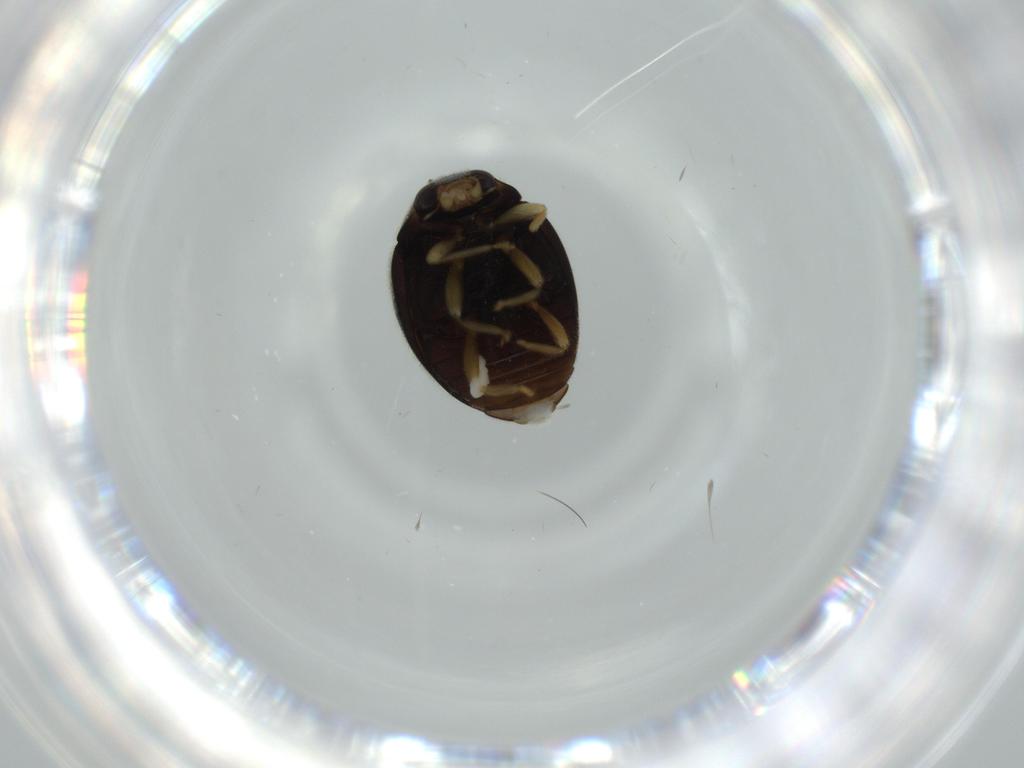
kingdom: Animalia
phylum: Arthropoda
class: Insecta
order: Coleoptera
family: Coccinellidae
